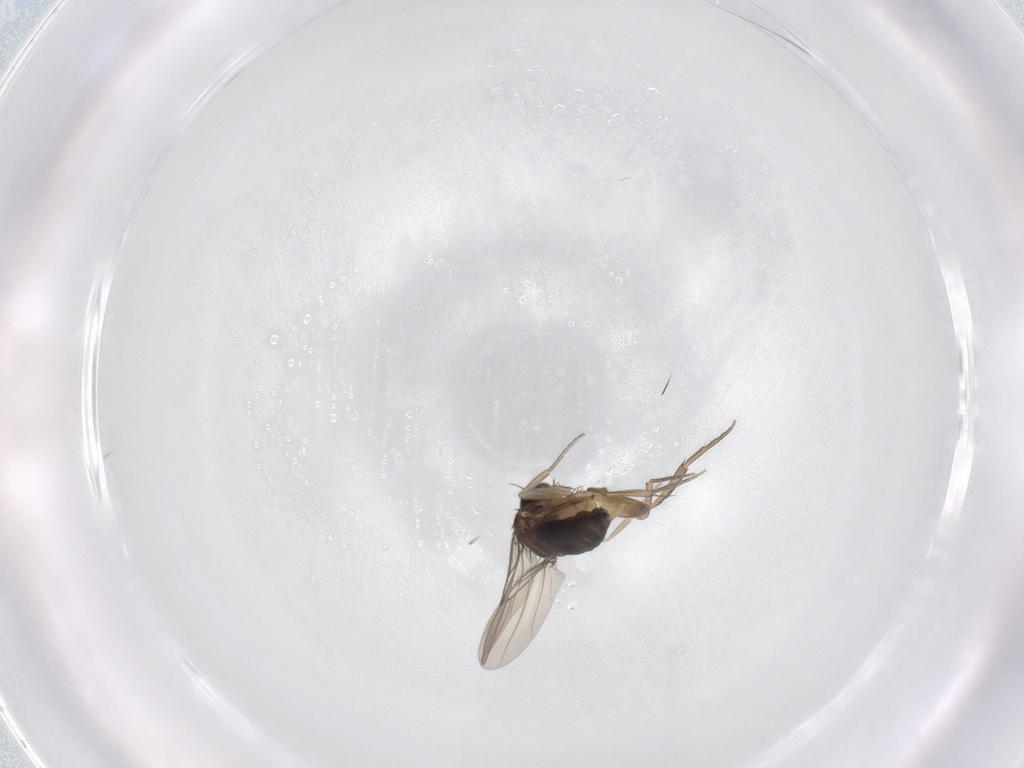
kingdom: Animalia
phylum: Arthropoda
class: Insecta
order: Diptera
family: Phoridae
